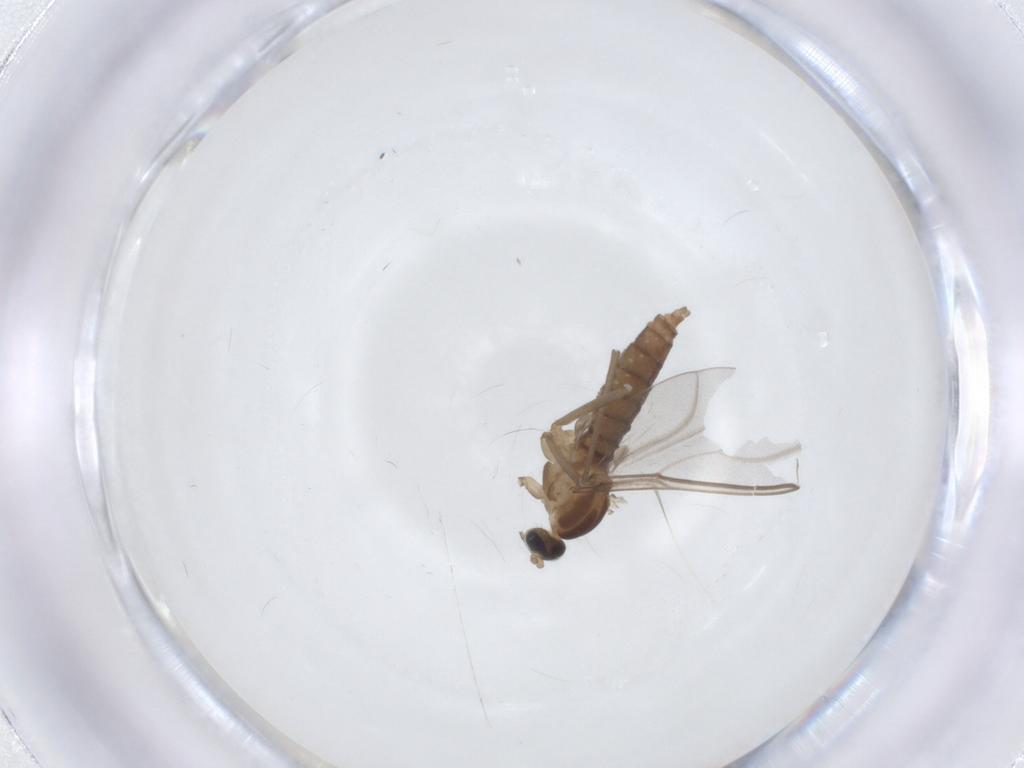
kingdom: Animalia
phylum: Arthropoda
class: Insecta
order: Diptera
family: Cecidomyiidae
